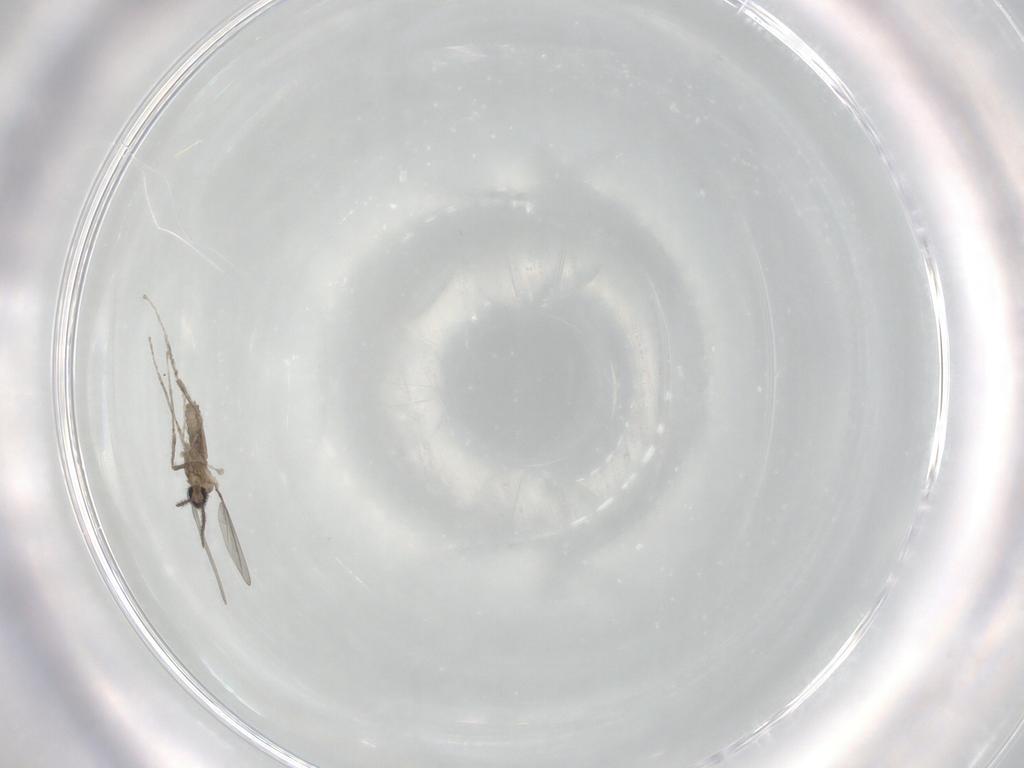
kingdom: Animalia
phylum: Arthropoda
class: Insecta
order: Diptera
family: Cecidomyiidae
